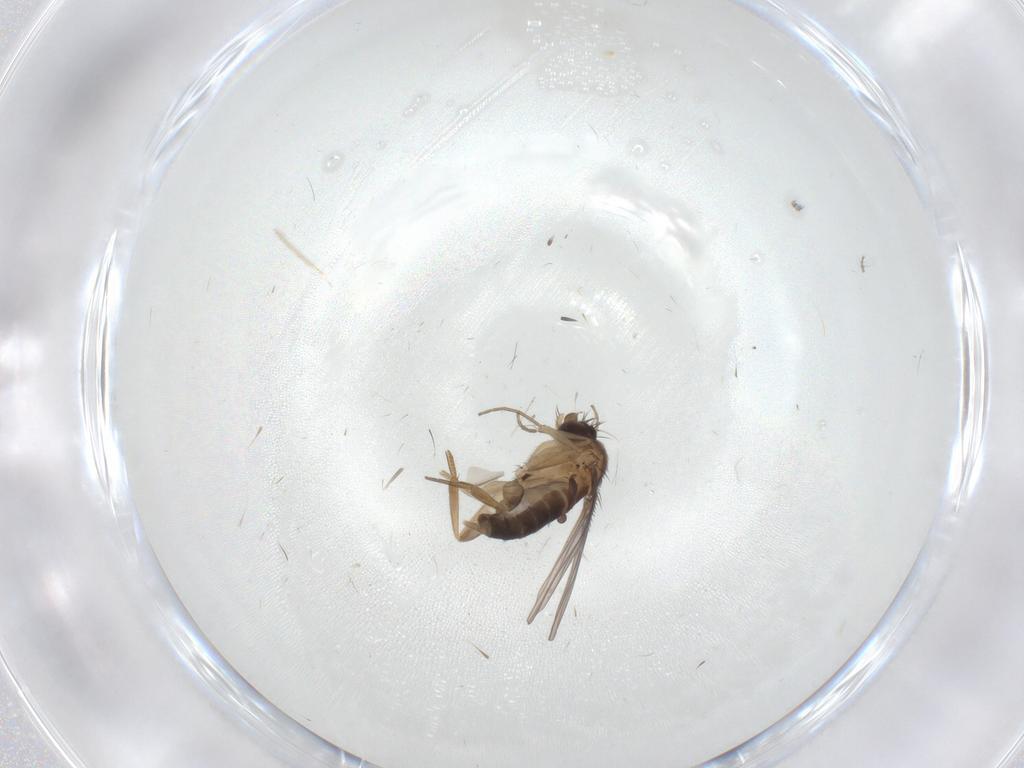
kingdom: Animalia
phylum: Arthropoda
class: Insecta
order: Diptera
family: Phoridae
